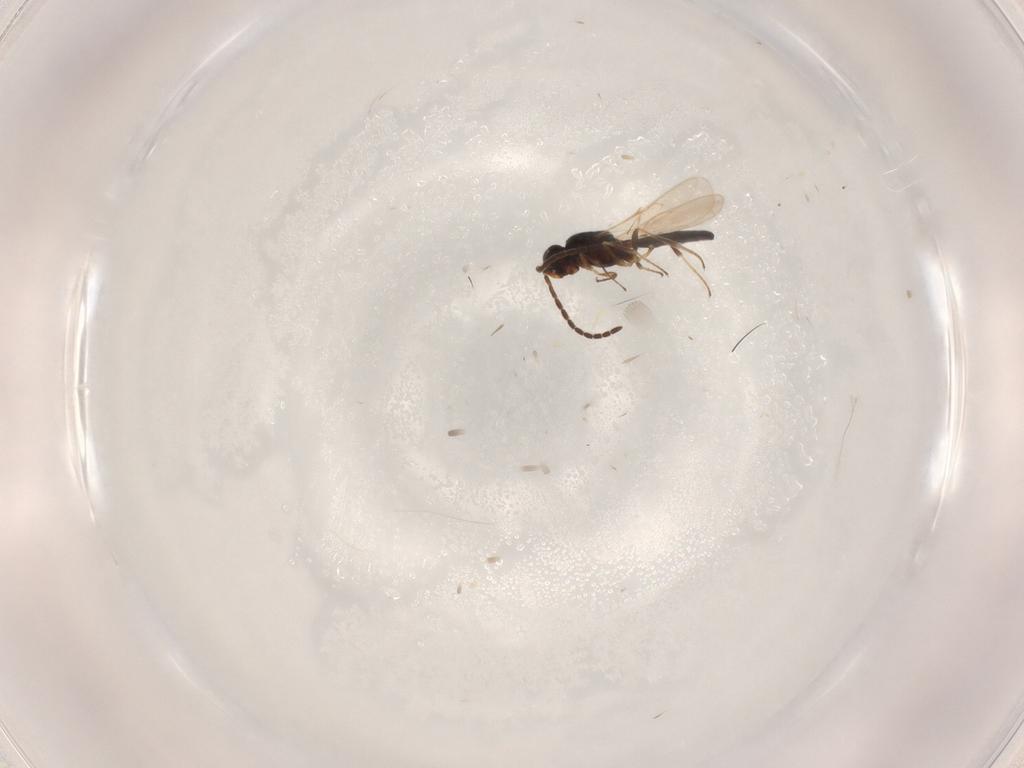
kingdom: Animalia
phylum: Arthropoda
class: Insecta
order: Hymenoptera
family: Scelionidae
